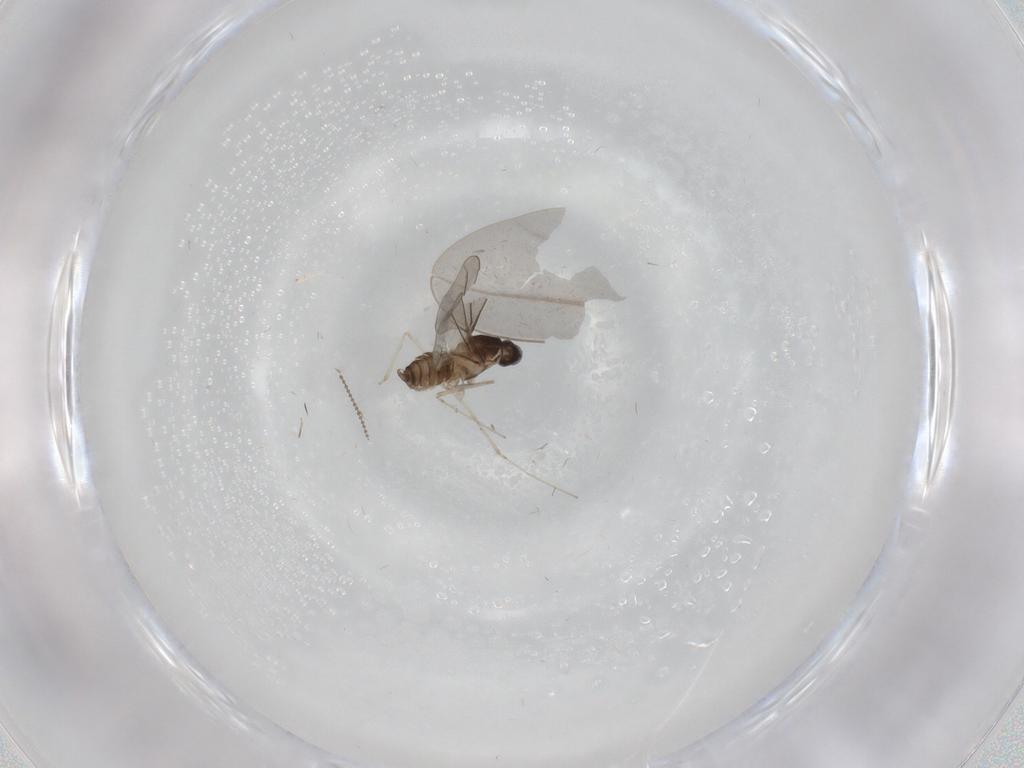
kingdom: Animalia
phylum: Arthropoda
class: Insecta
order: Diptera
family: Cecidomyiidae
